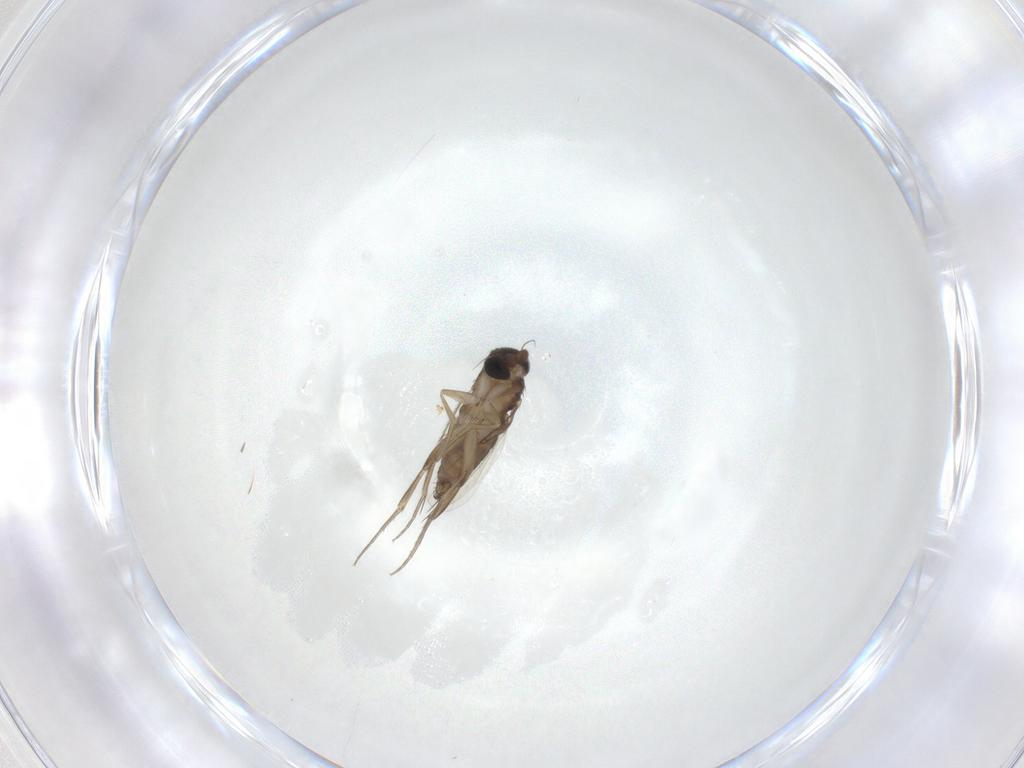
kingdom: Animalia
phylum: Arthropoda
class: Insecta
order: Diptera
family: Phoridae
